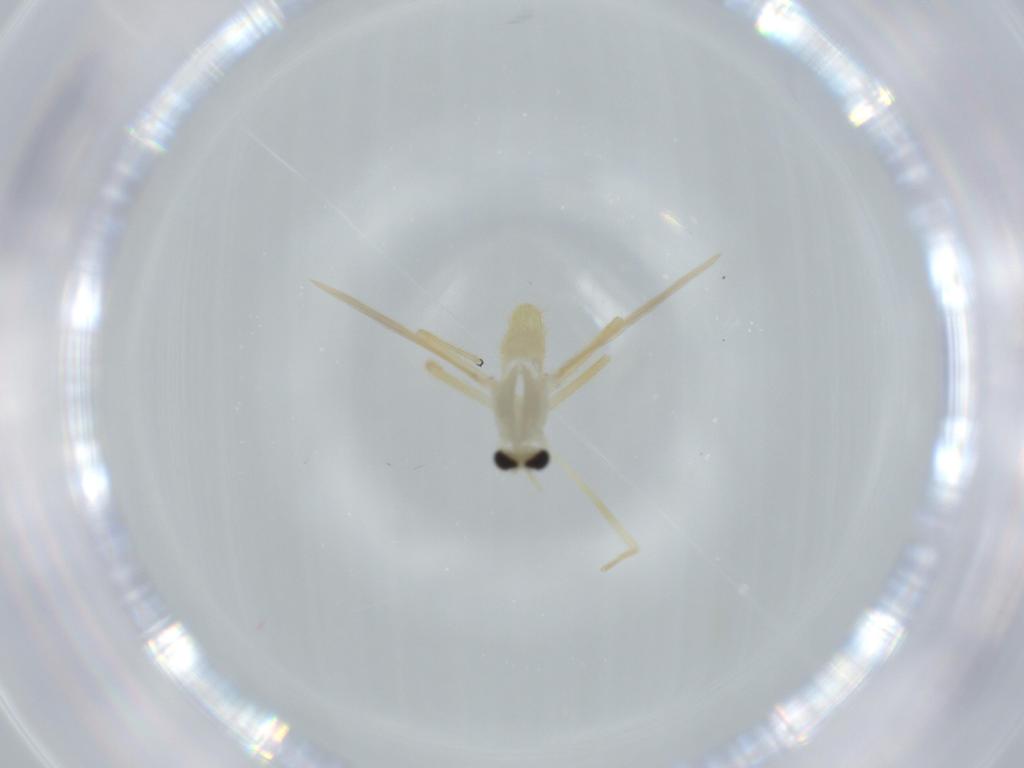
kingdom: Animalia
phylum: Arthropoda
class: Insecta
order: Diptera
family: Chironomidae
